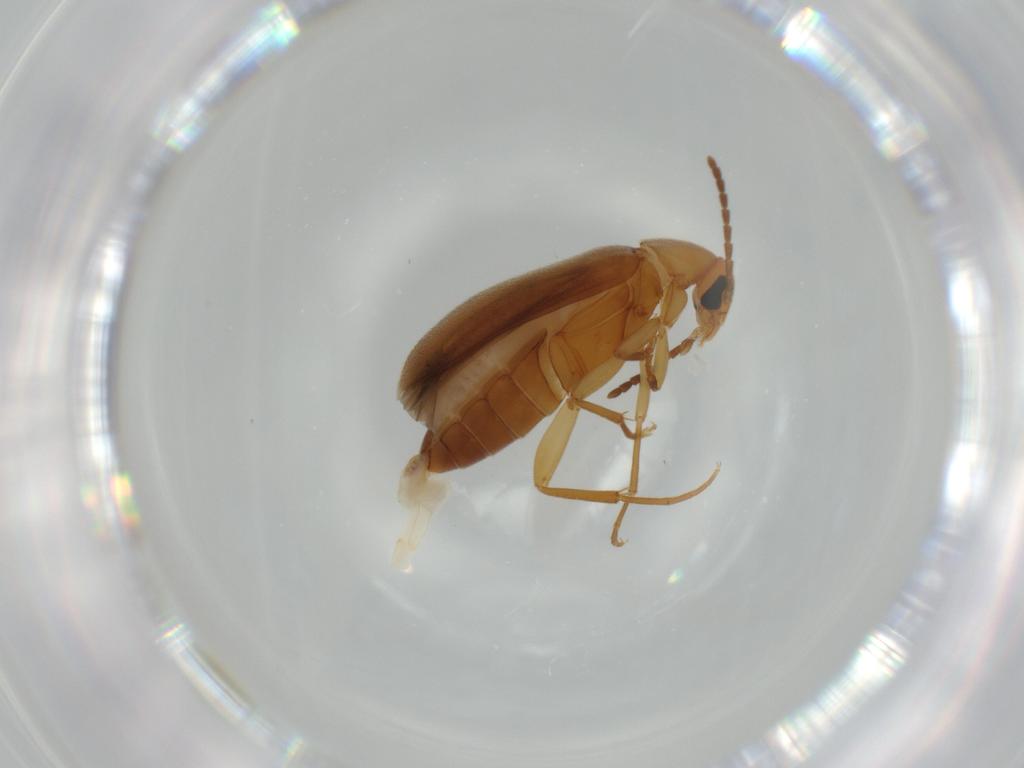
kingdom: Animalia
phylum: Arthropoda
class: Insecta
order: Coleoptera
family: Scraptiidae
